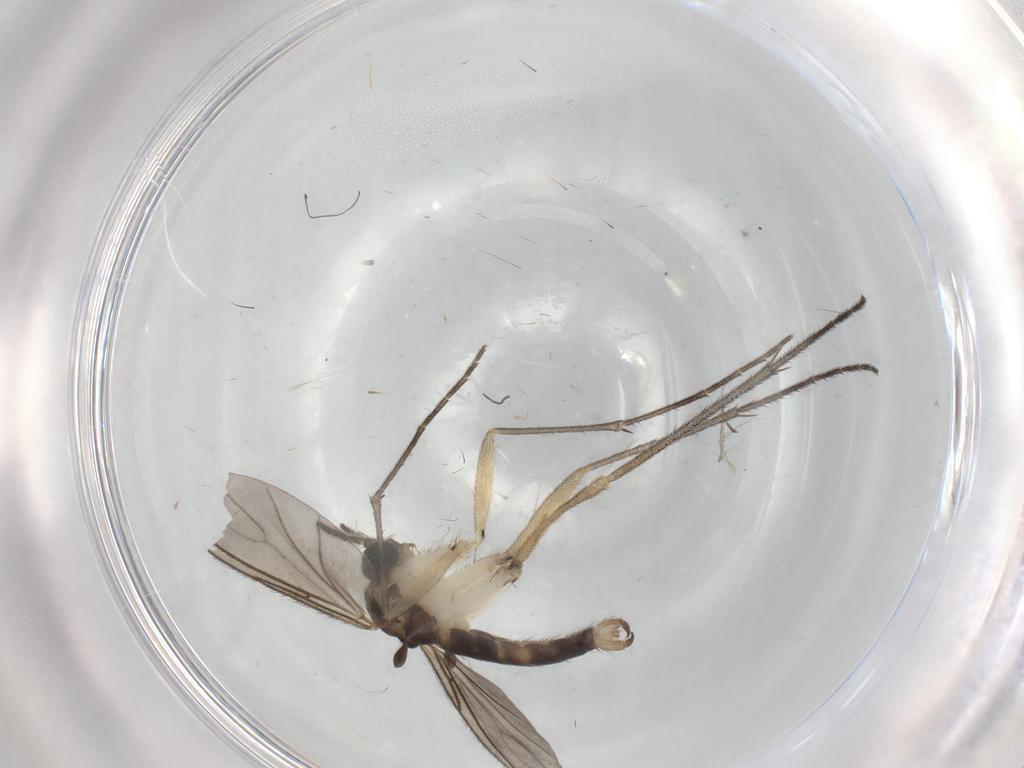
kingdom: Animalia
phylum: Arthropoda
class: Insecta
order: Diptera
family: Sciaridae
